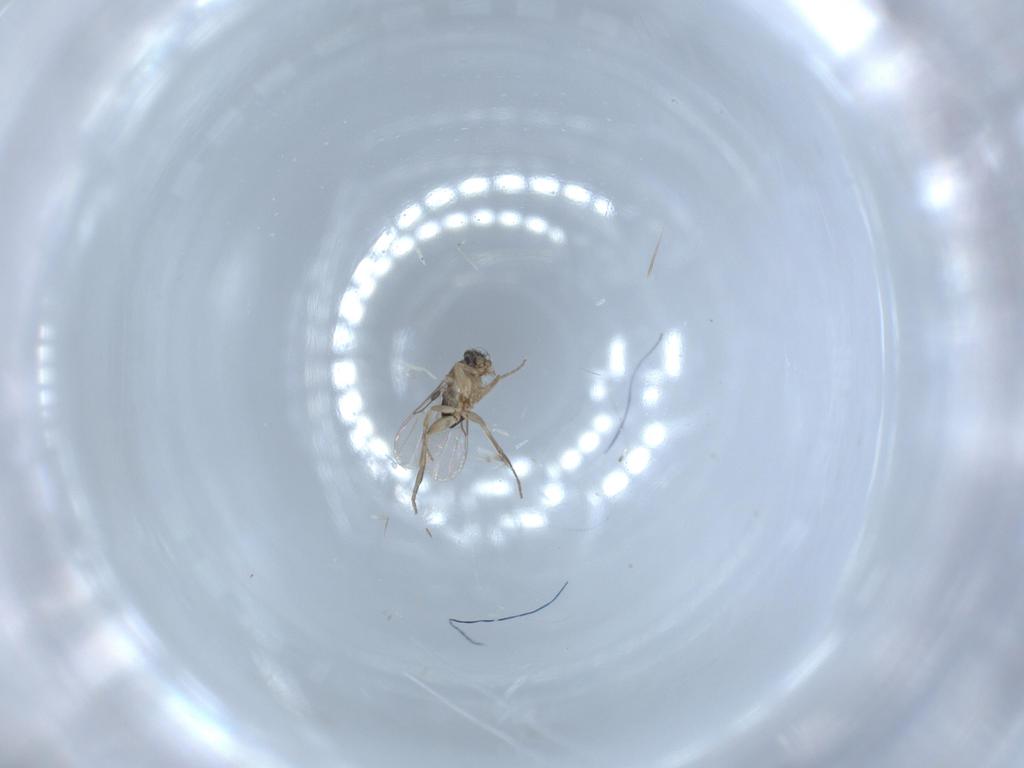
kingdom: Animalia
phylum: Arthropoda
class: Insecta
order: Diptera
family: Phoridae
